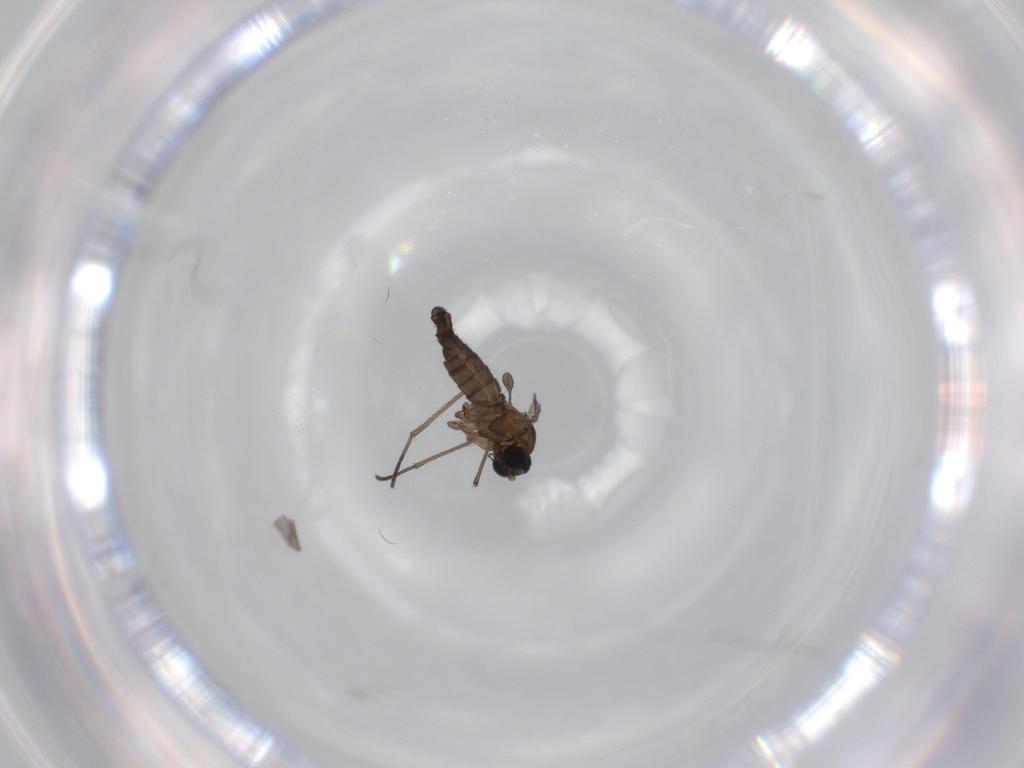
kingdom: Animalia
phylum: Arthropoda
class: Insecta
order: Diptera
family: Sciaridae
